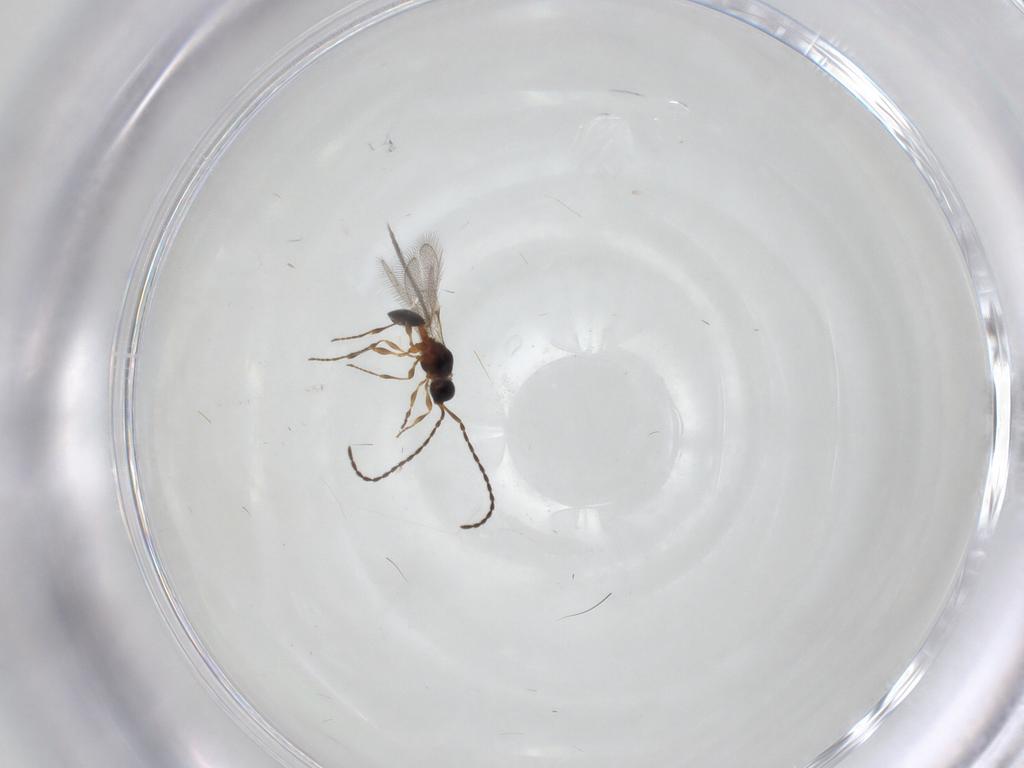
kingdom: Animalia
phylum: Arthropoda
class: Insecta
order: Hymenoptera
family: Diapriidae
